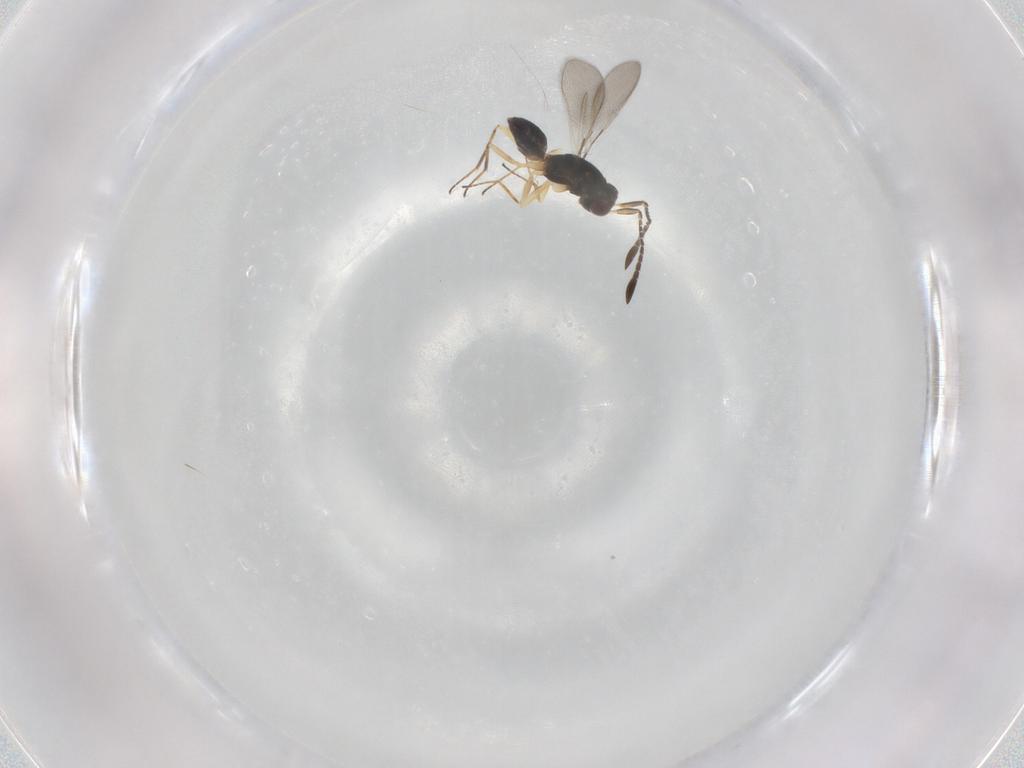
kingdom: Animalia
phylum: Arthropoda
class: Insecta
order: Hymenoptera
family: Mymaridae
